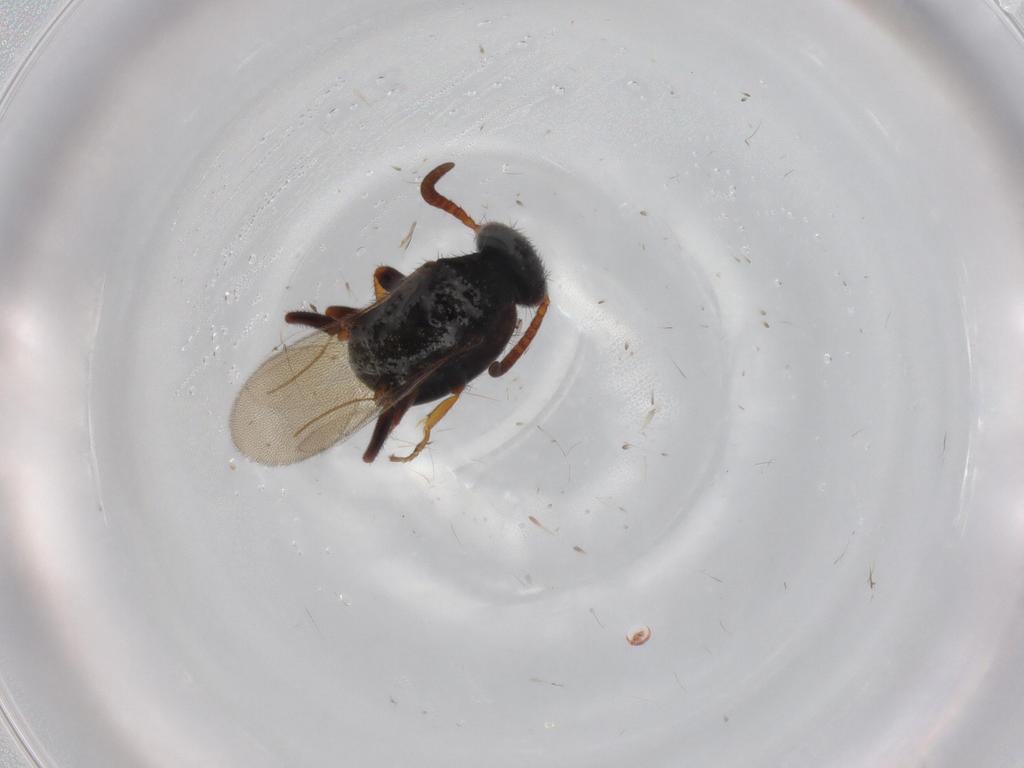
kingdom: Animalia
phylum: Arthropoda
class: Insecta
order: Hymenoptera
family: Bethylidae
